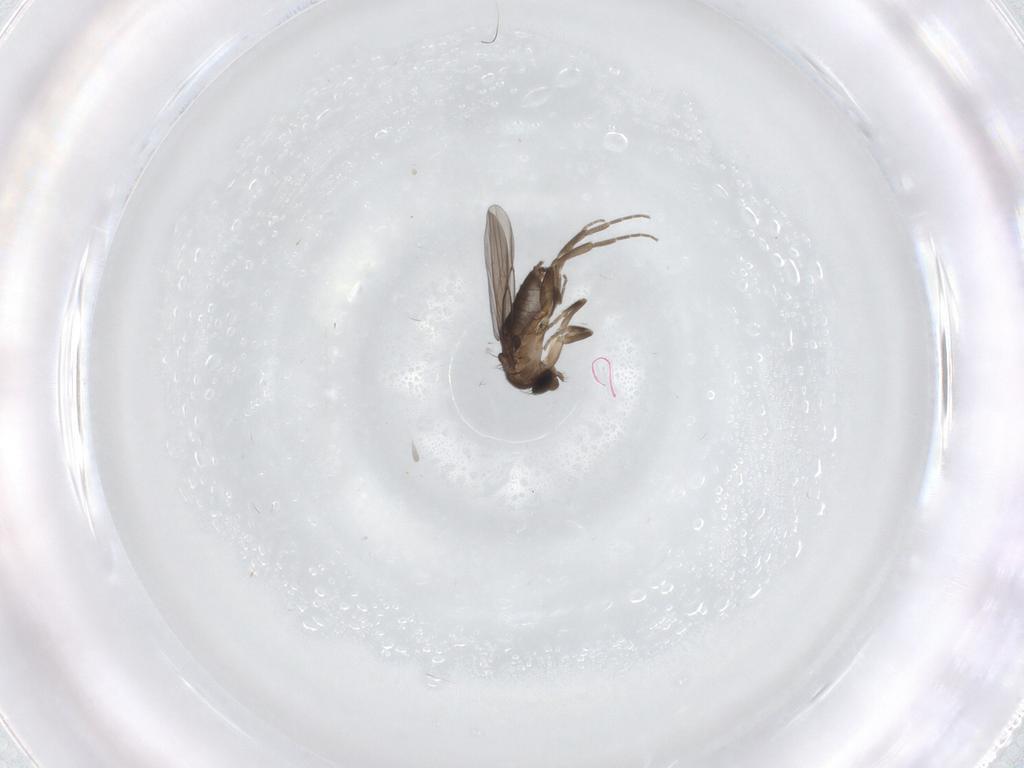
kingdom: Animalia
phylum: Arthropoda
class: Insecta
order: Diptera
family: Phoridae
